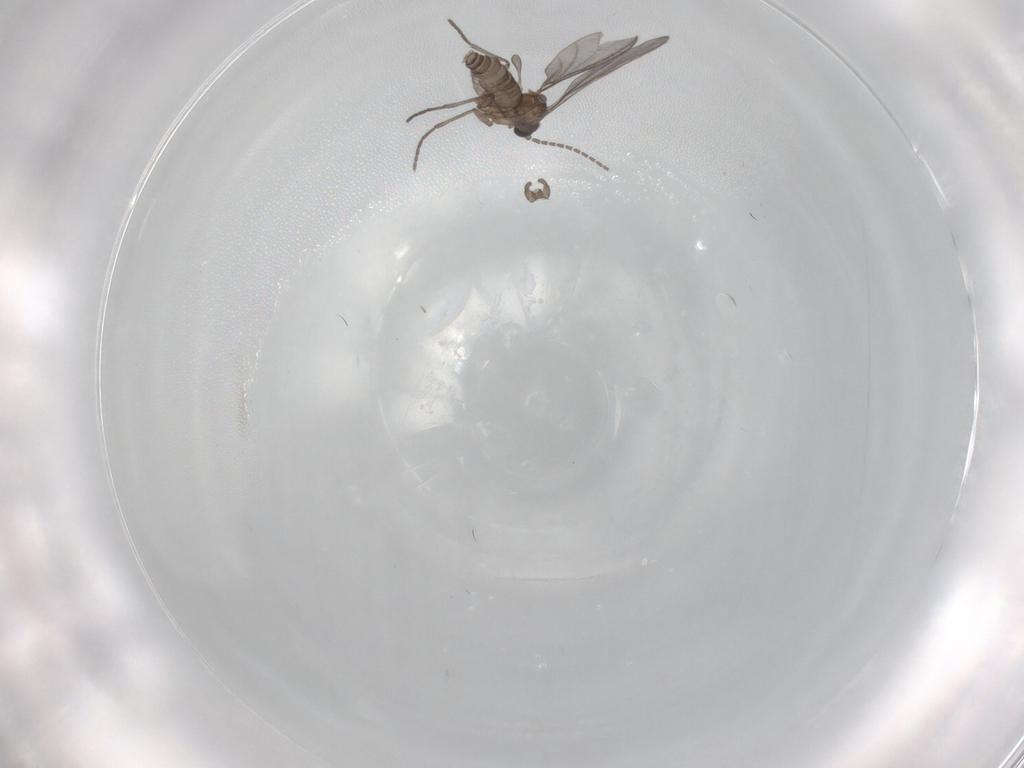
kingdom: Animalia
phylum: Arthropoda
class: Insecta
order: Diptera
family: Sciaridae
